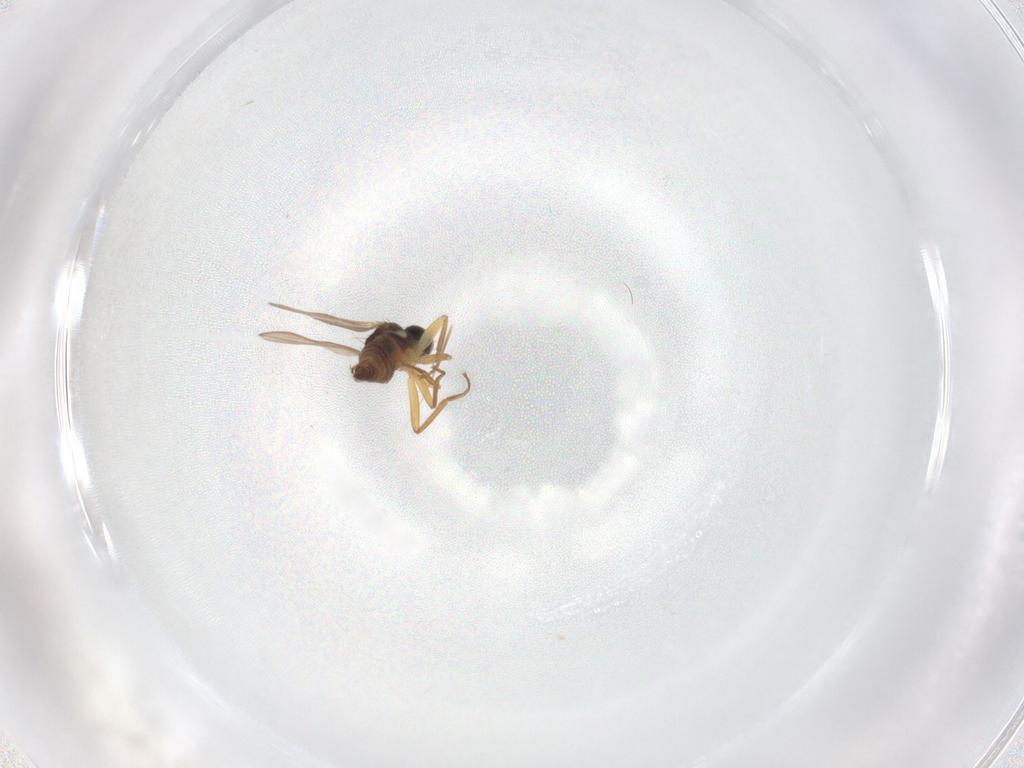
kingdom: Animalia
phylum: Arthropoda
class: Insecta
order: Diptera
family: Hybotidae
